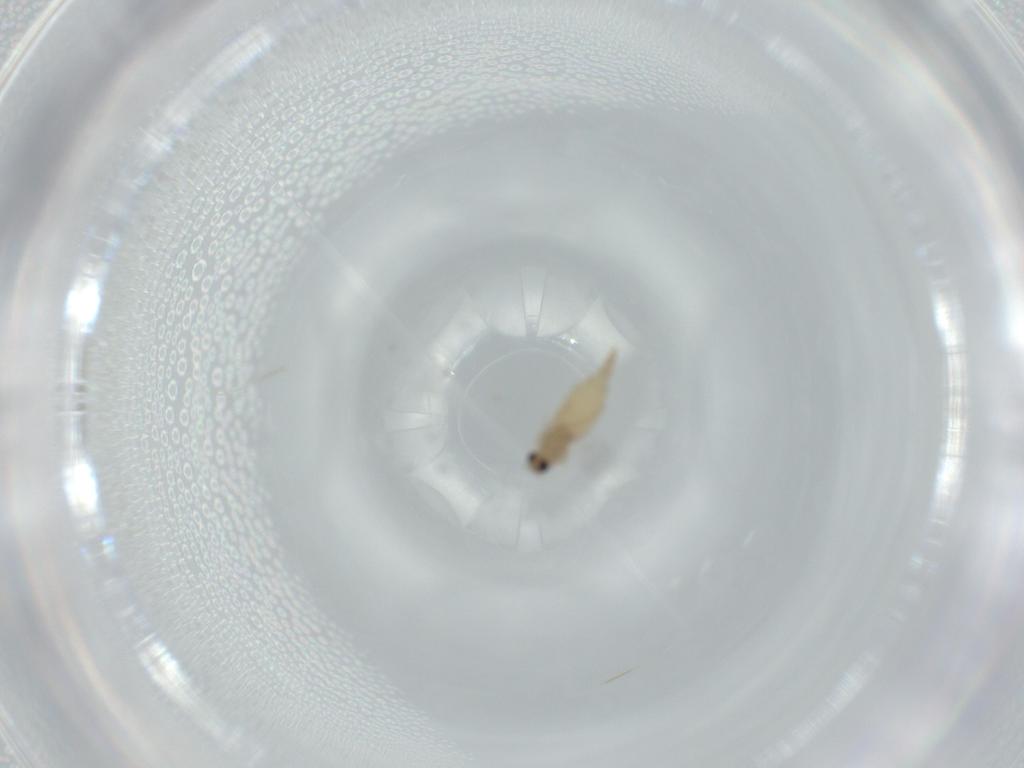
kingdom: Animalia
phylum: Arthropoda
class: Insecta
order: Diptera
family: Cecidomyiidae
